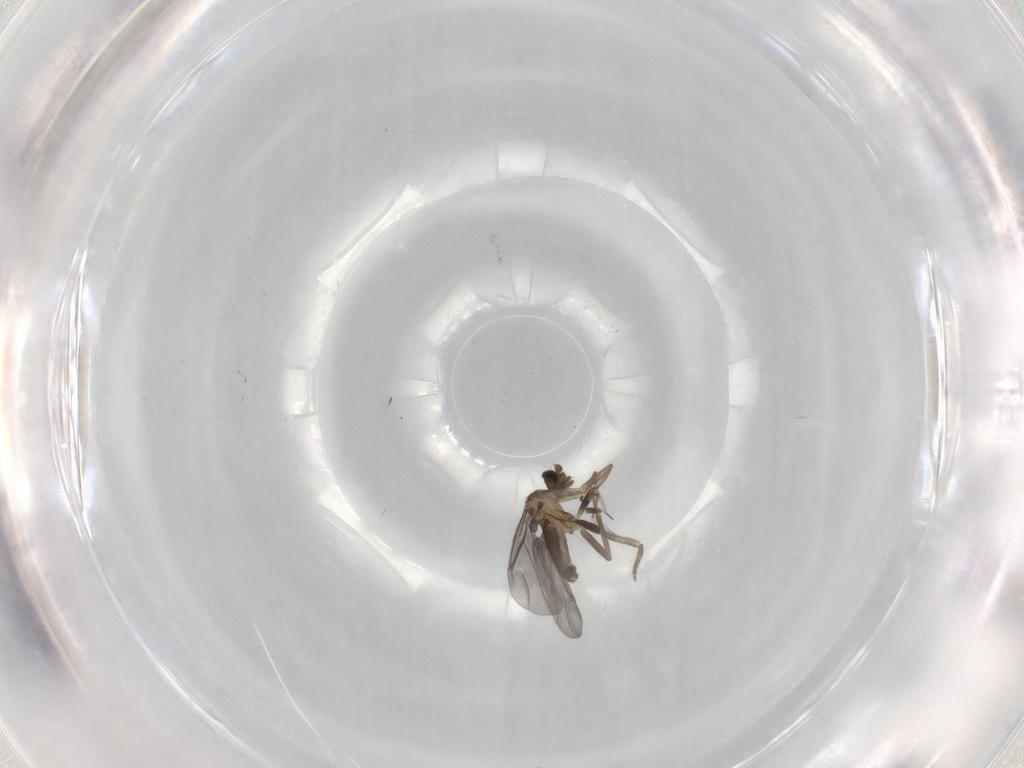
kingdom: Animalia
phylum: Arthropoda
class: Insecta
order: Diptera
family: Phoridae
